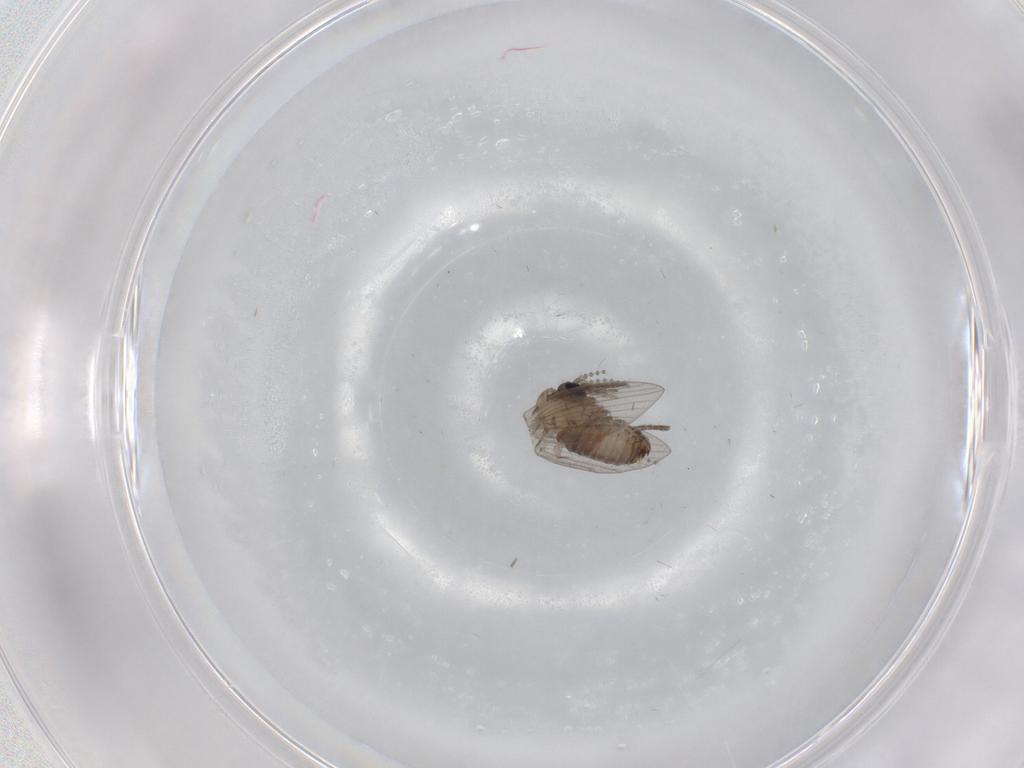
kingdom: Animalia
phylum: Arthropoda
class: Insecta
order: Diptera
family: Psychodidae
